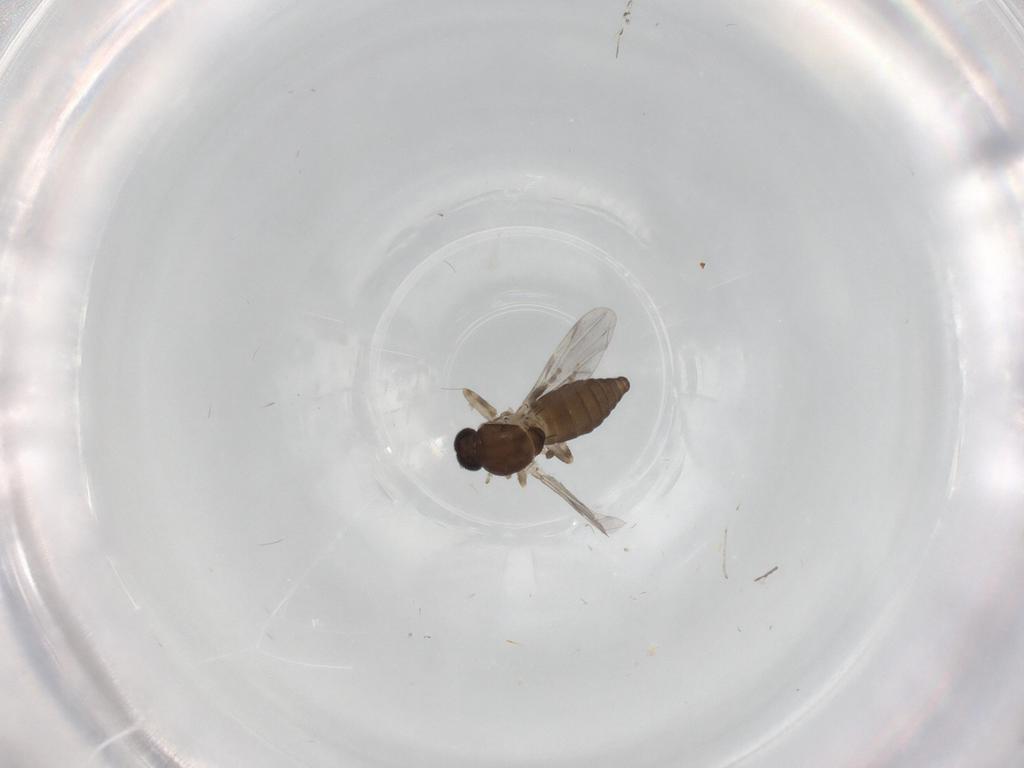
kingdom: Animalia
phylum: Arthropoda
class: Insecta
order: Diptera
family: Ceratopogonidae
